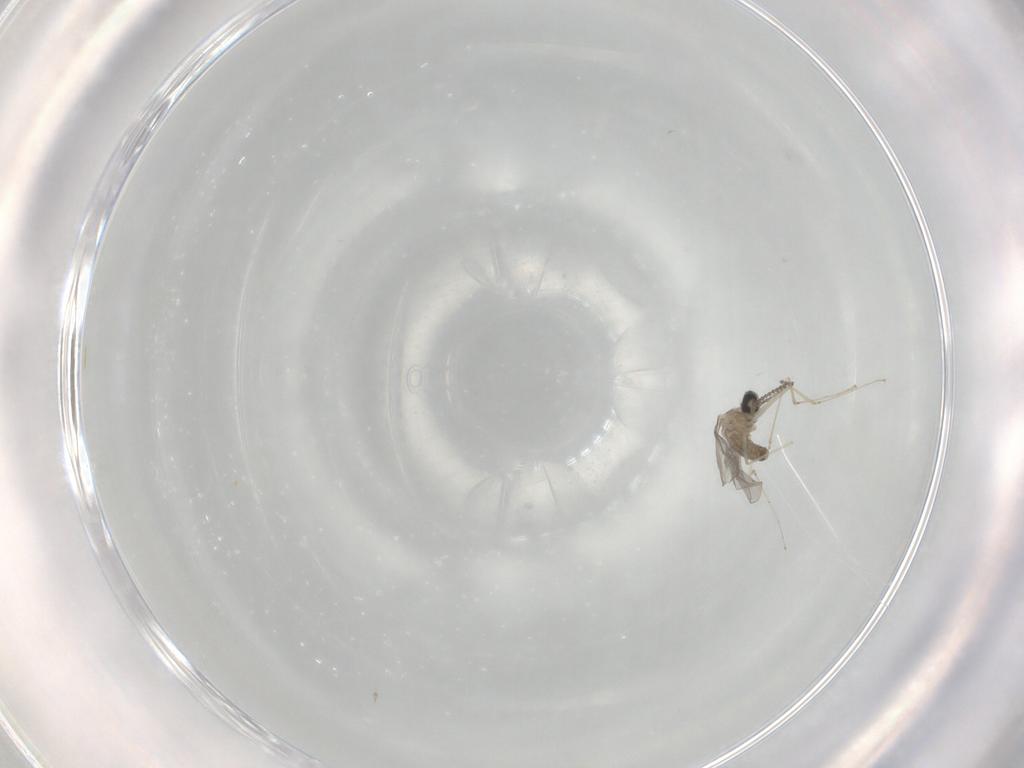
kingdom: Animalia
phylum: Arthropoda
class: Insecta
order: Diptera
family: Cecidomyiidae
